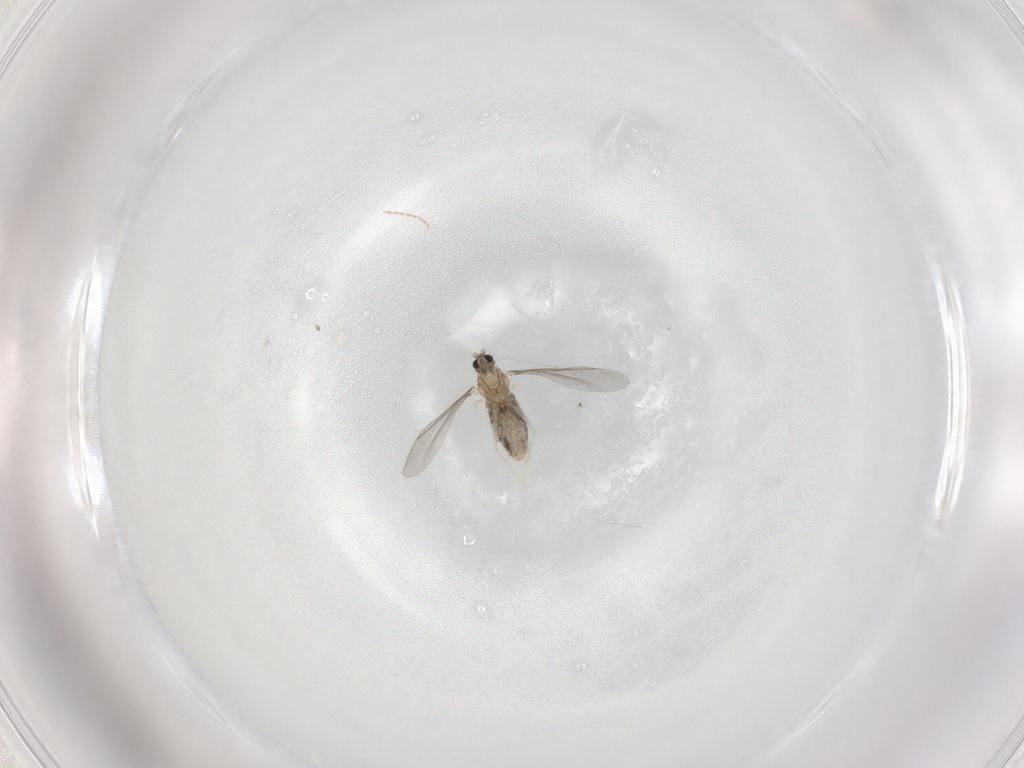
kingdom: Animalia
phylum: Arthropoda
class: Insecta
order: Diptera
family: Cecidomyiidae
